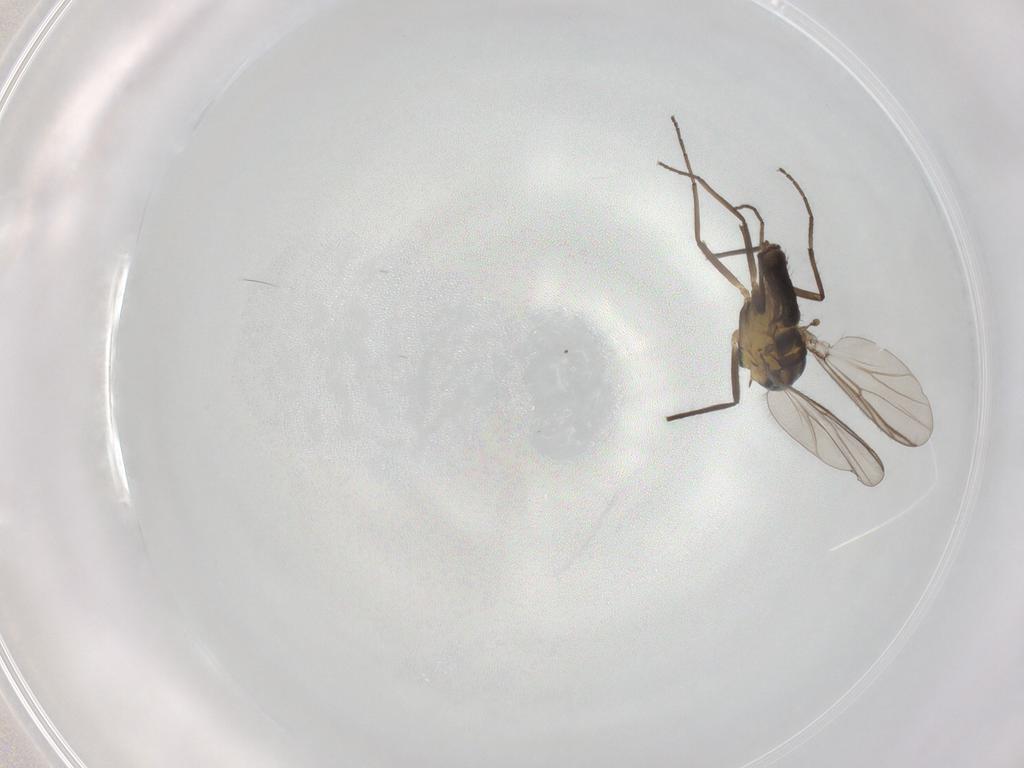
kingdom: Animalia
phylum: Arthropoda
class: Insecta
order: Diptera
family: Chironomidae
